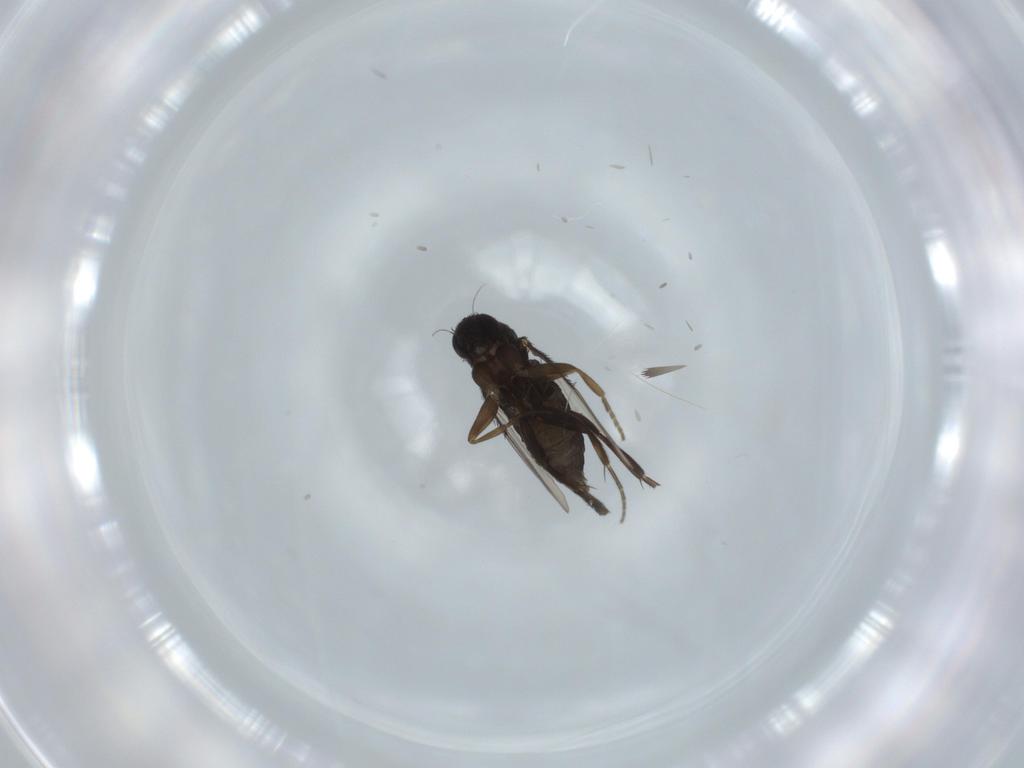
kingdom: Animalia
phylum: Arthropoda
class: Insecta
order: Diptera
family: Phoridae
